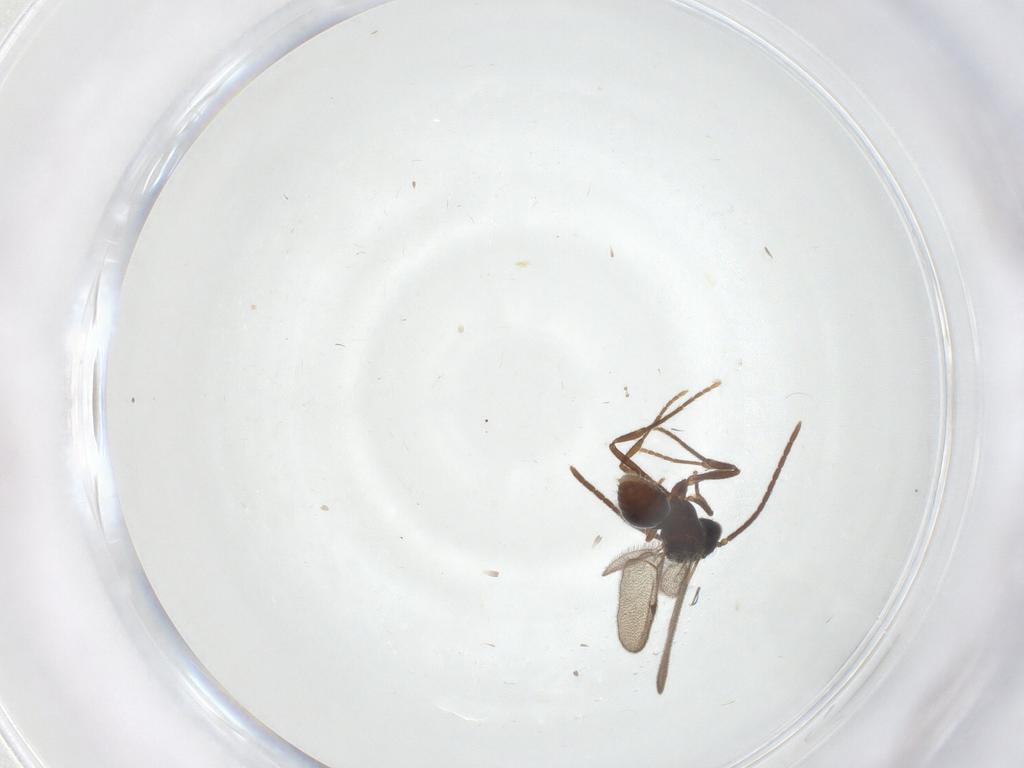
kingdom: Animalia
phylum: Arthropoda
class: Insecta
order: Hymenoptera
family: Formicidae
